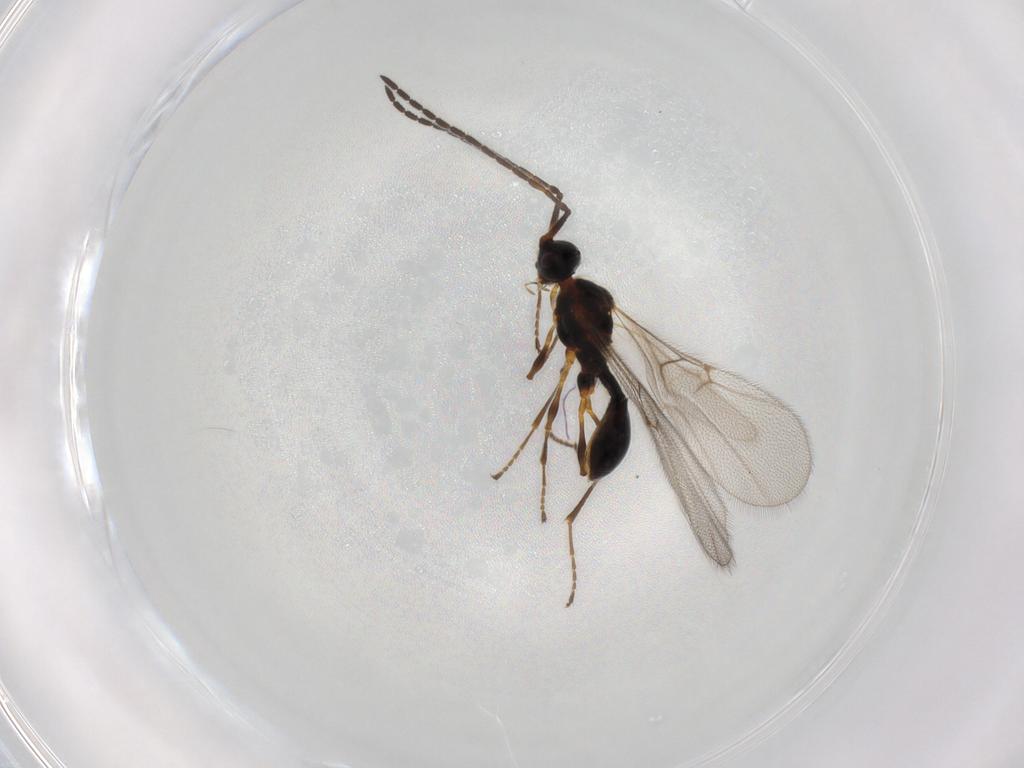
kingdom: Animalia
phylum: Arthropoda
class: Insecta
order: Hymenoptera
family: Diapriidae
